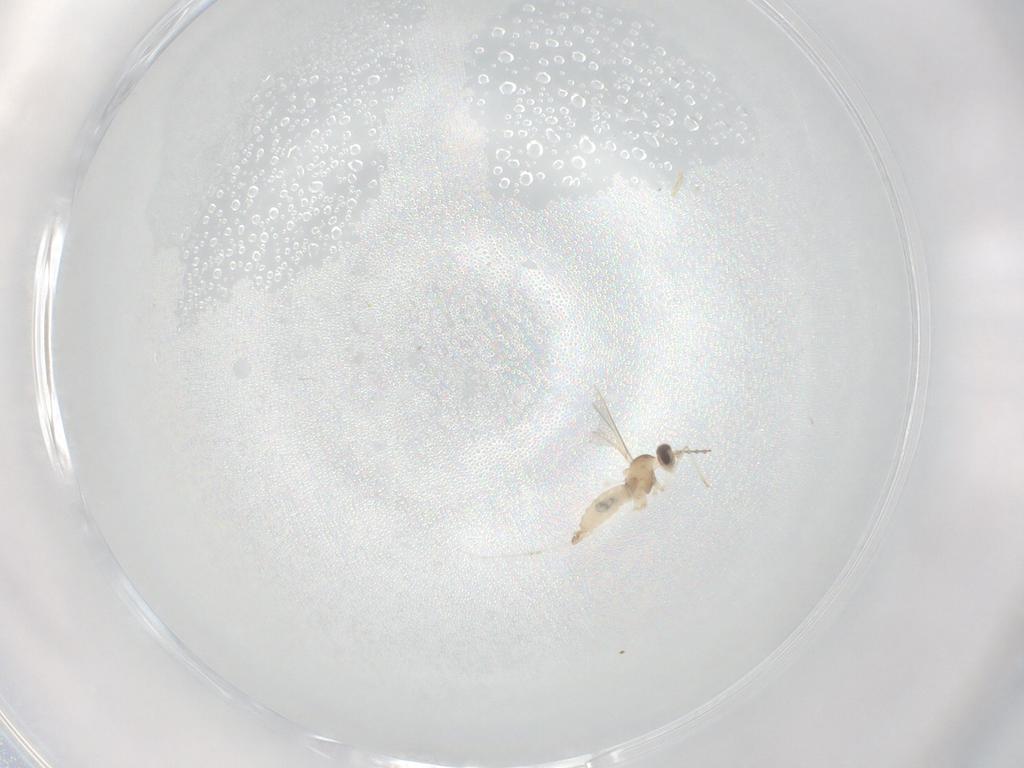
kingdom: Animalia
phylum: Arthropoda
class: Insecta
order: Diptera
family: Cecidomyiidae
